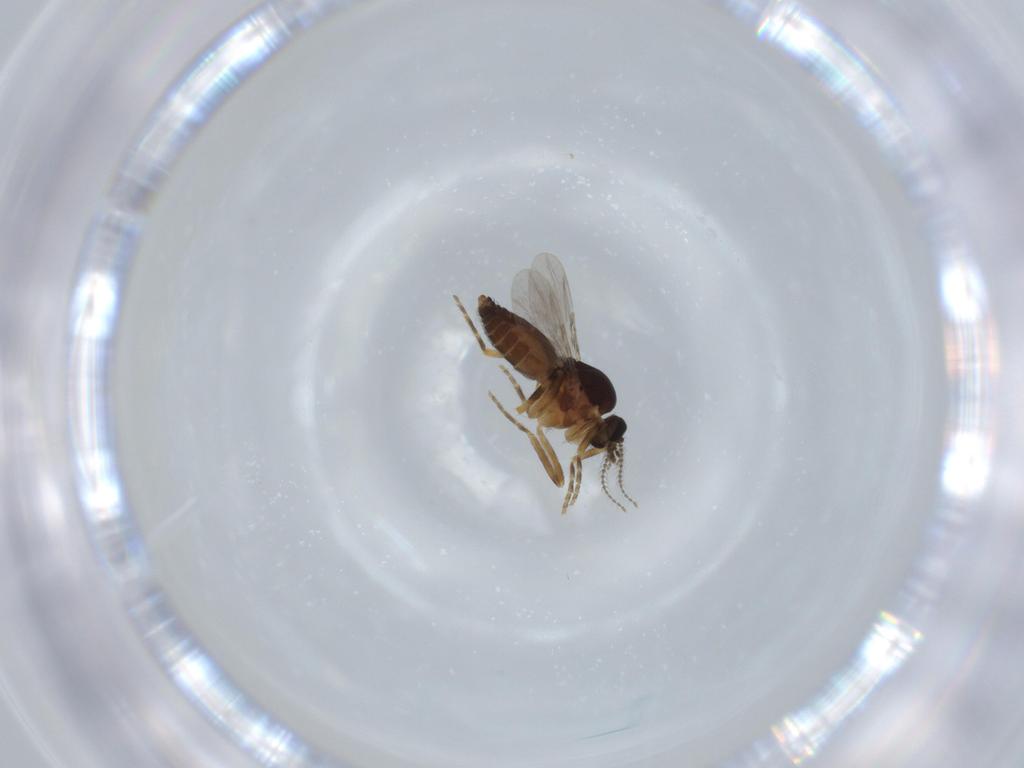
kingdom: Animalia
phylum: Arthropoda
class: Insecta
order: Diptera
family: Ceratopogonidae
